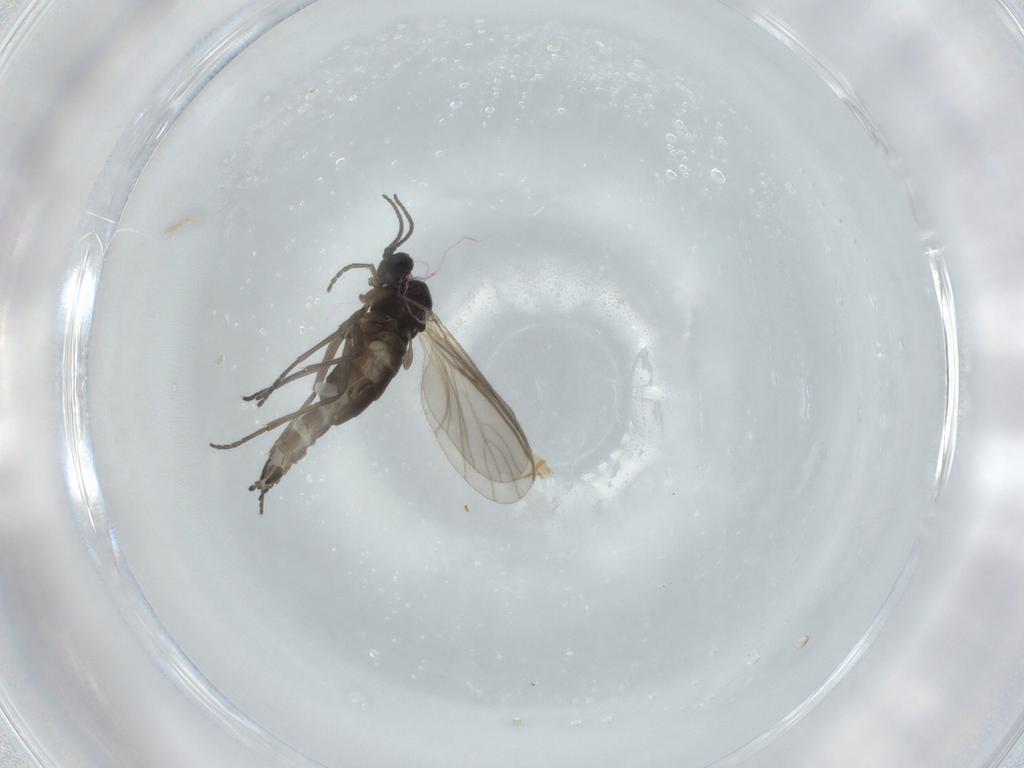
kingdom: Animalia
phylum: Arthropoda
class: Insecta
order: Diptera
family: Sciaridae
